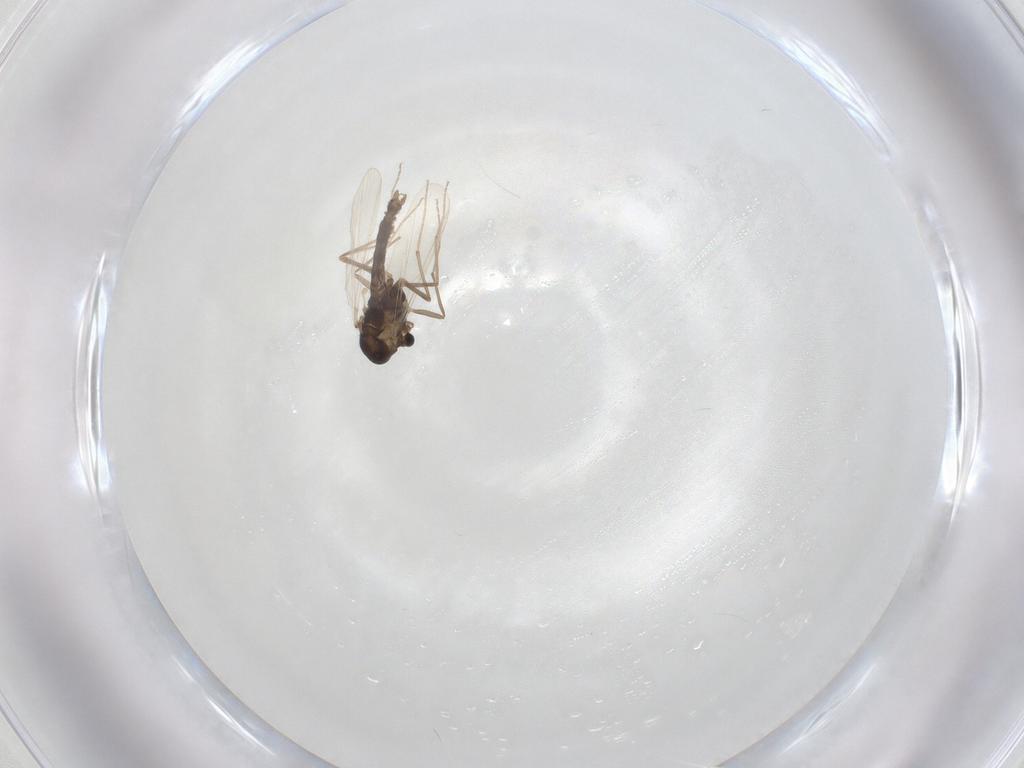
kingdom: Animalia
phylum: Arthropoda
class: Insecta
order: Diptera
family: Chironomidae
